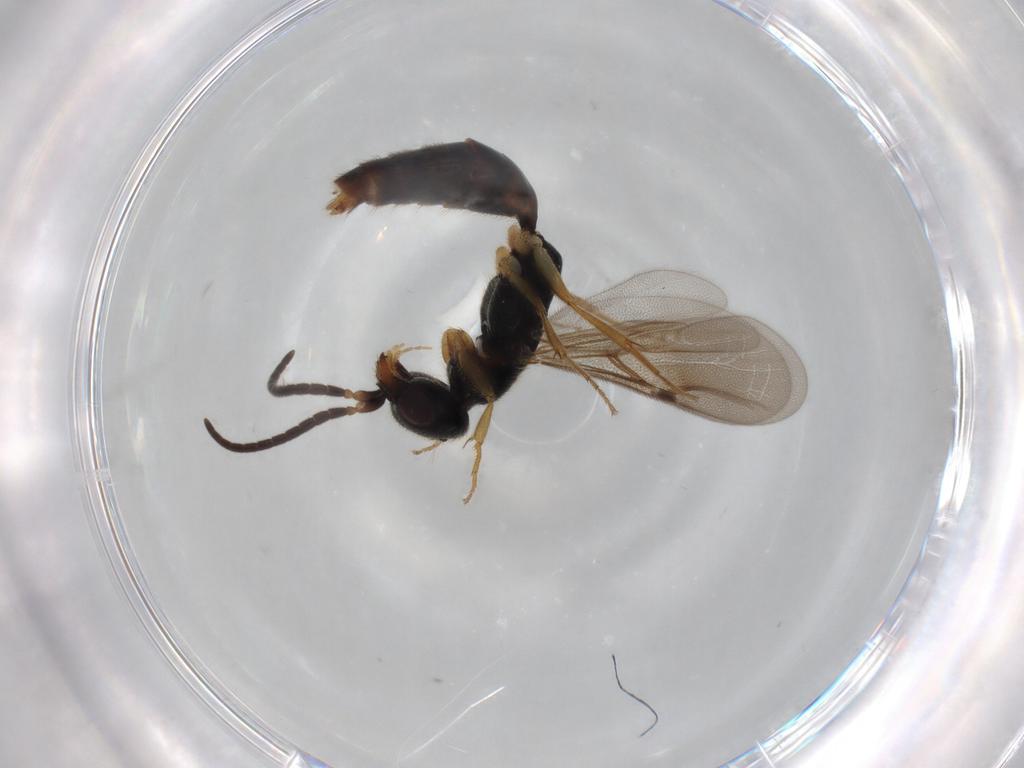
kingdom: Animalia
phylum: Arthropoda
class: Insecta
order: Hymenoptera
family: Bethylidae
